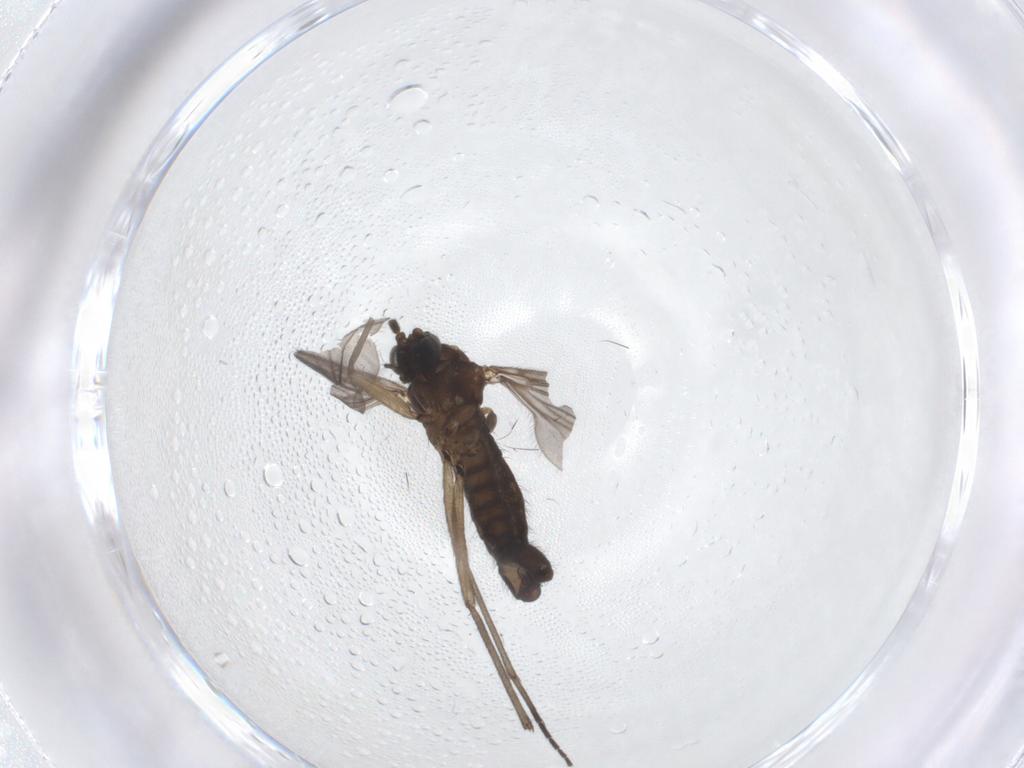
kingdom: Animalia
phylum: Arthropoda
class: Insecta
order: Diptera
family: Sciaridae
